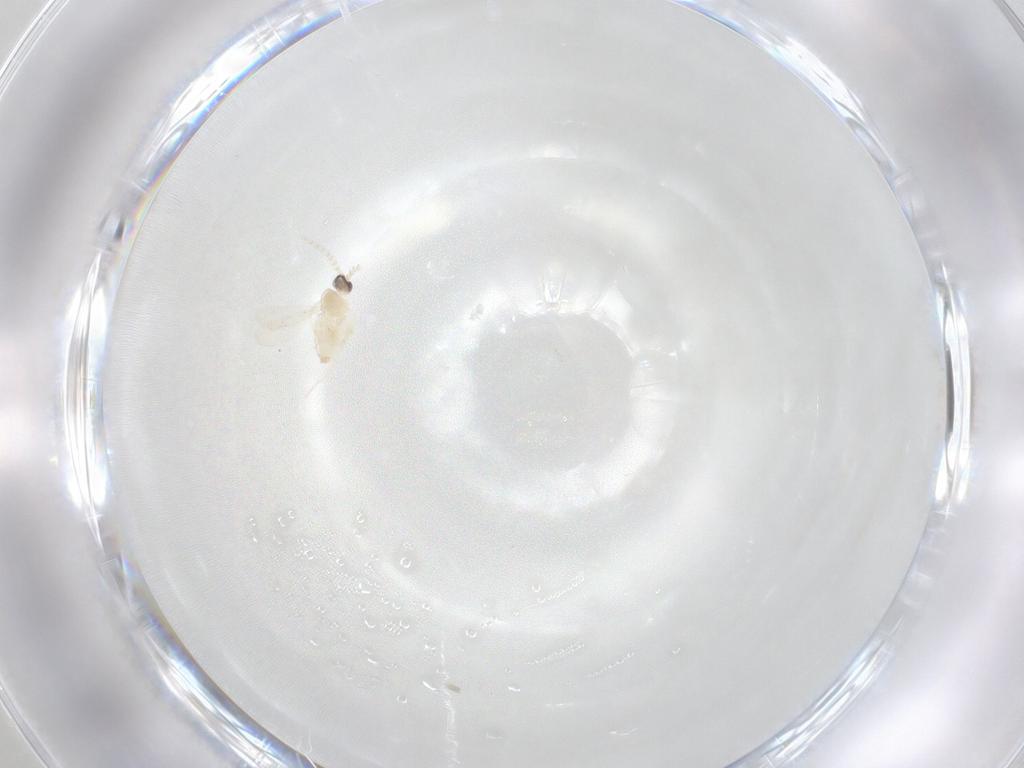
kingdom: Animalia
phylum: Arthropoda
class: Insecta
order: Diptera
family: Cecidomyiidae
